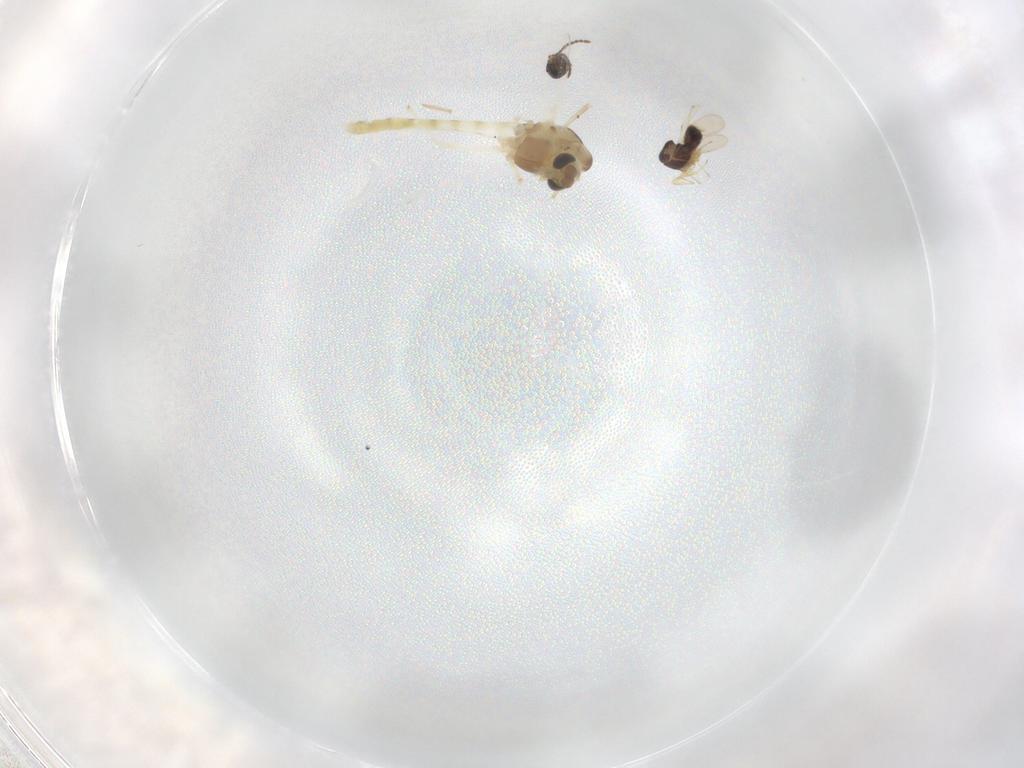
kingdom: Animalia
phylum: Arthropoda
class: Insecta
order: Diptera
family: Chironomidae
